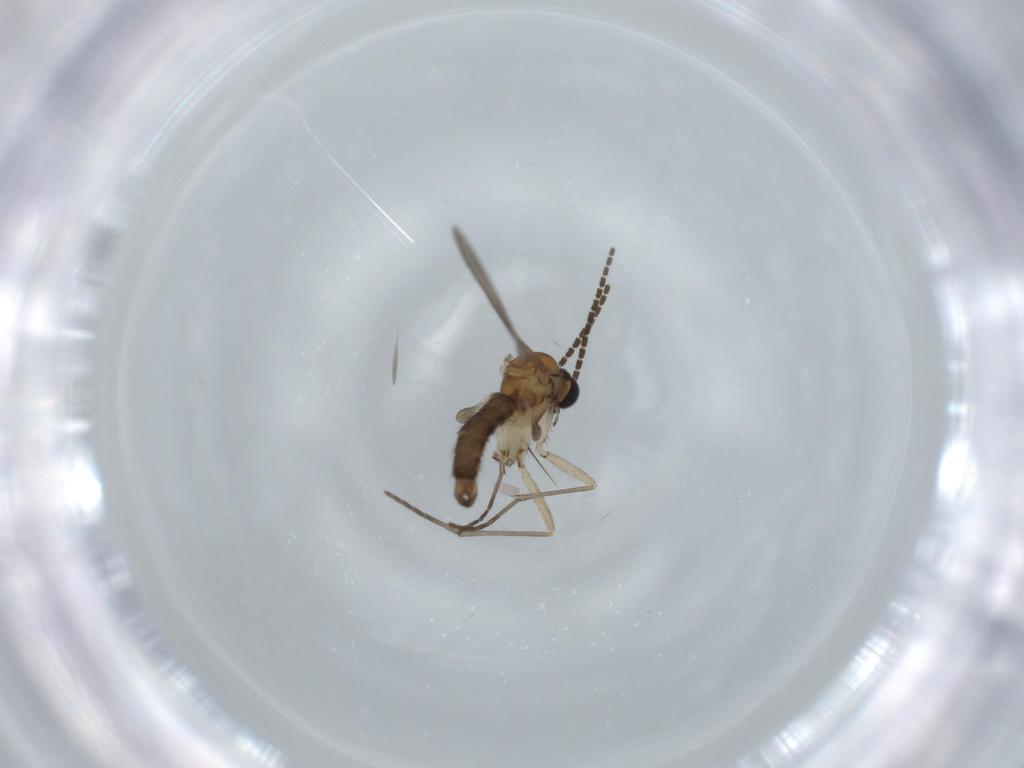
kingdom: Animalia
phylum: Arthropoda
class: Insecta
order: Diptera
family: Sciaridae
